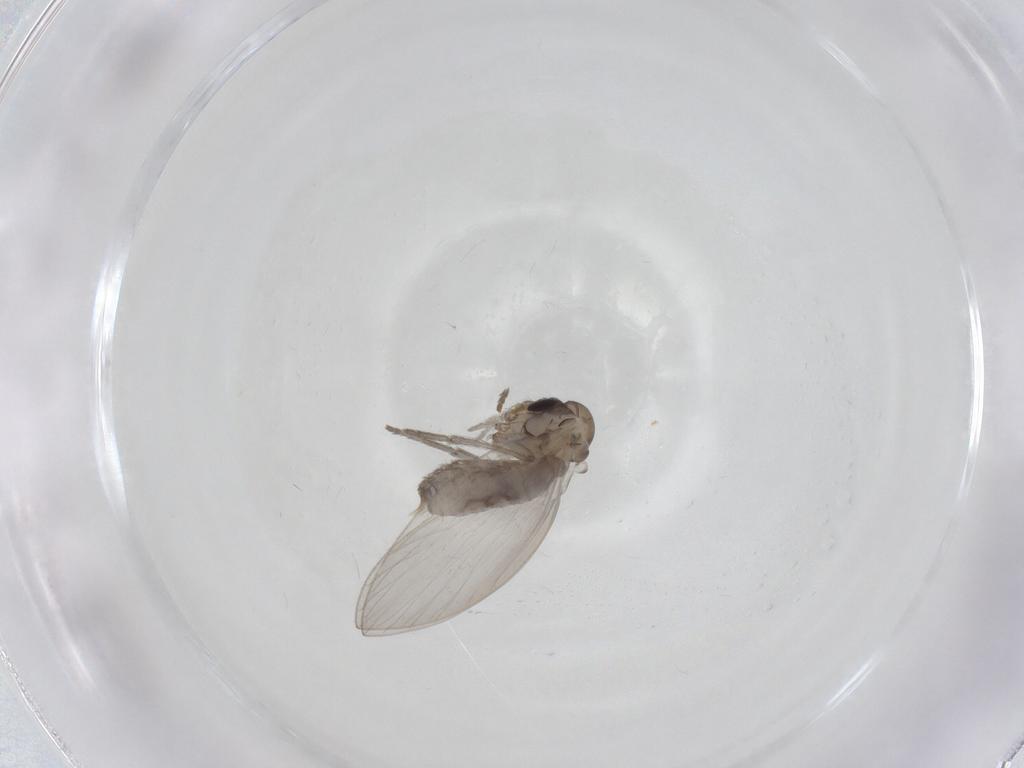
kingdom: Animalia
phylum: Arthropoda
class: Insecta
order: Diptera
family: Psychodidae
